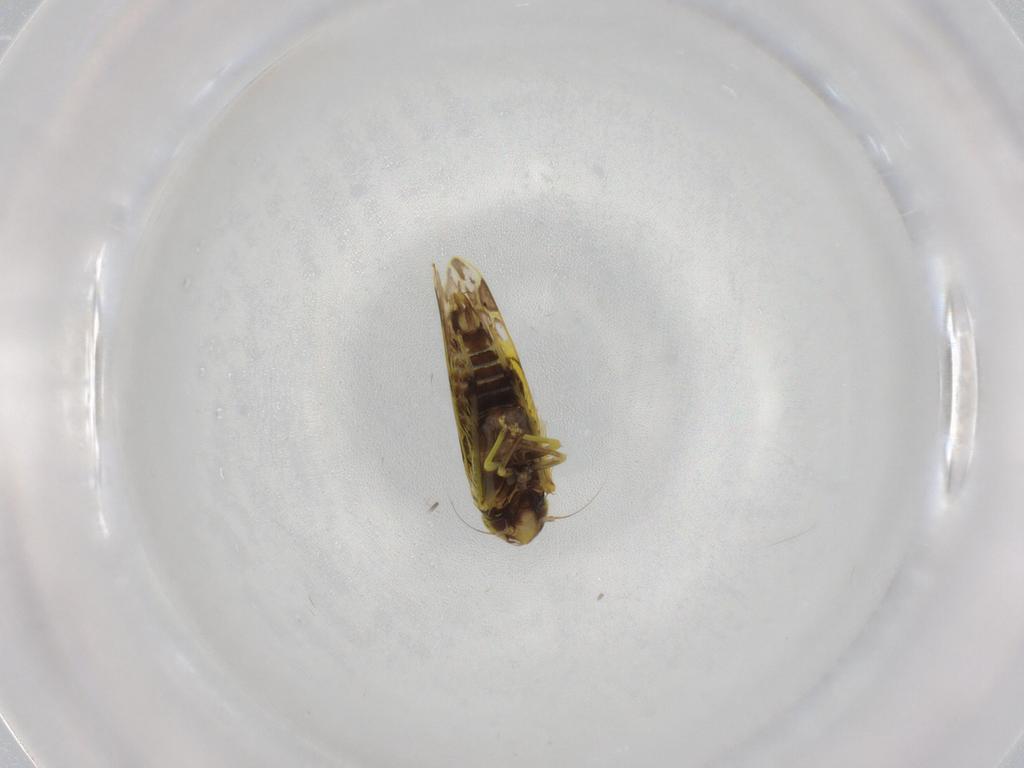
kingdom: Animalia
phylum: Arthropoda
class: Insecta
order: Hemiptera
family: Cicadellidae
